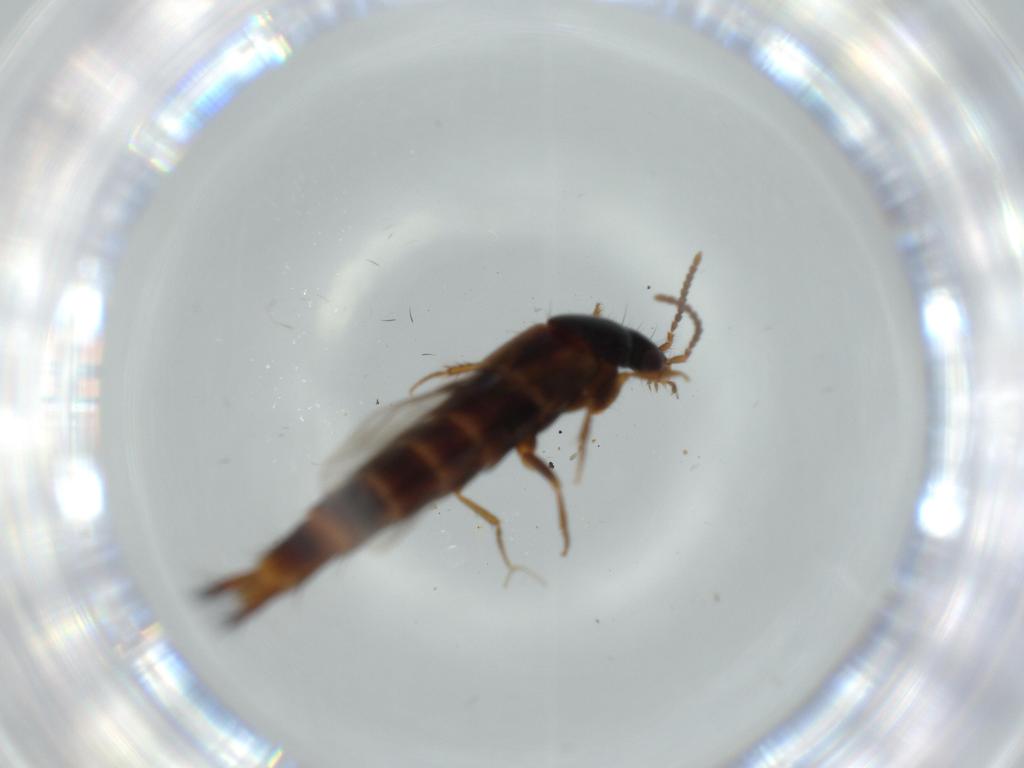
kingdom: Animalia
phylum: Arthropoda
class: Insecta
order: Coleoptera
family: Staphylinidae
